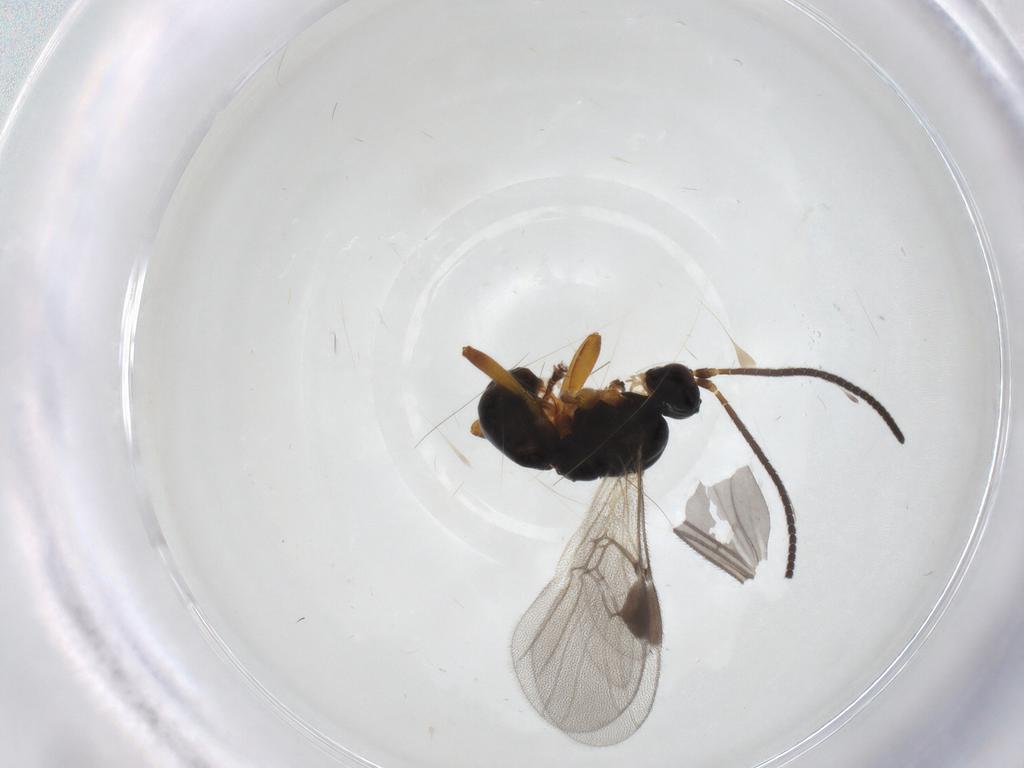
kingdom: Animalia
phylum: Arthropoda
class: Insecta
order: Hymenoptera
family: Braconidae
